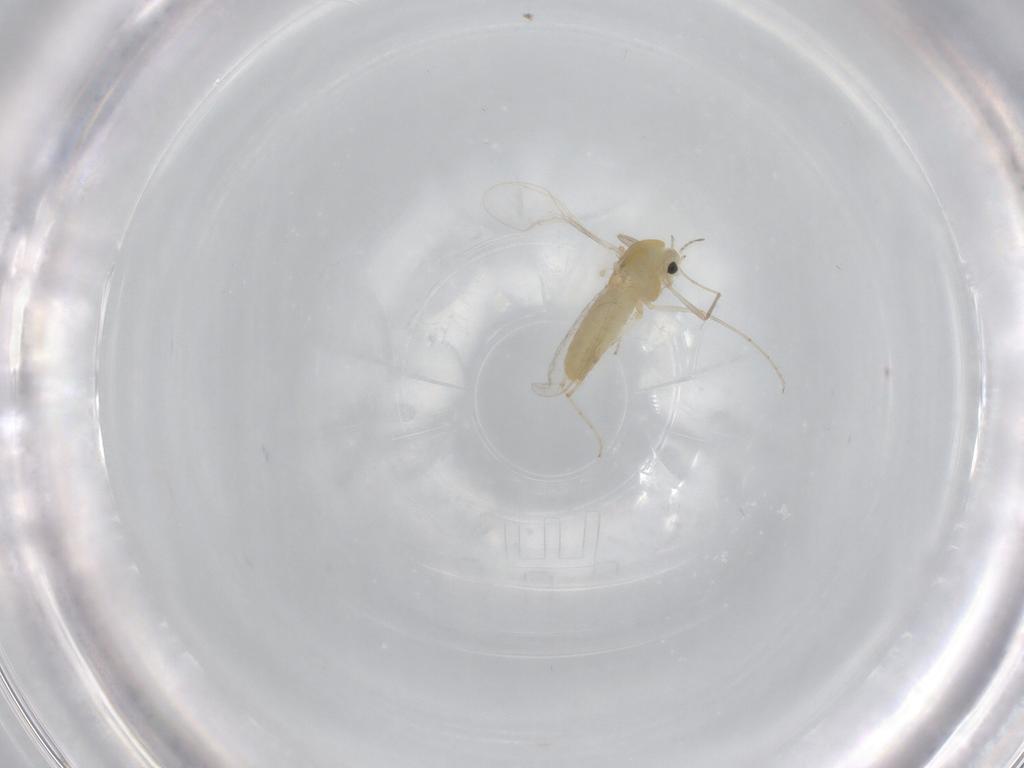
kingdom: Animalia
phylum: Arthropoda
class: Insecta
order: Diptera
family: Chironomidae
